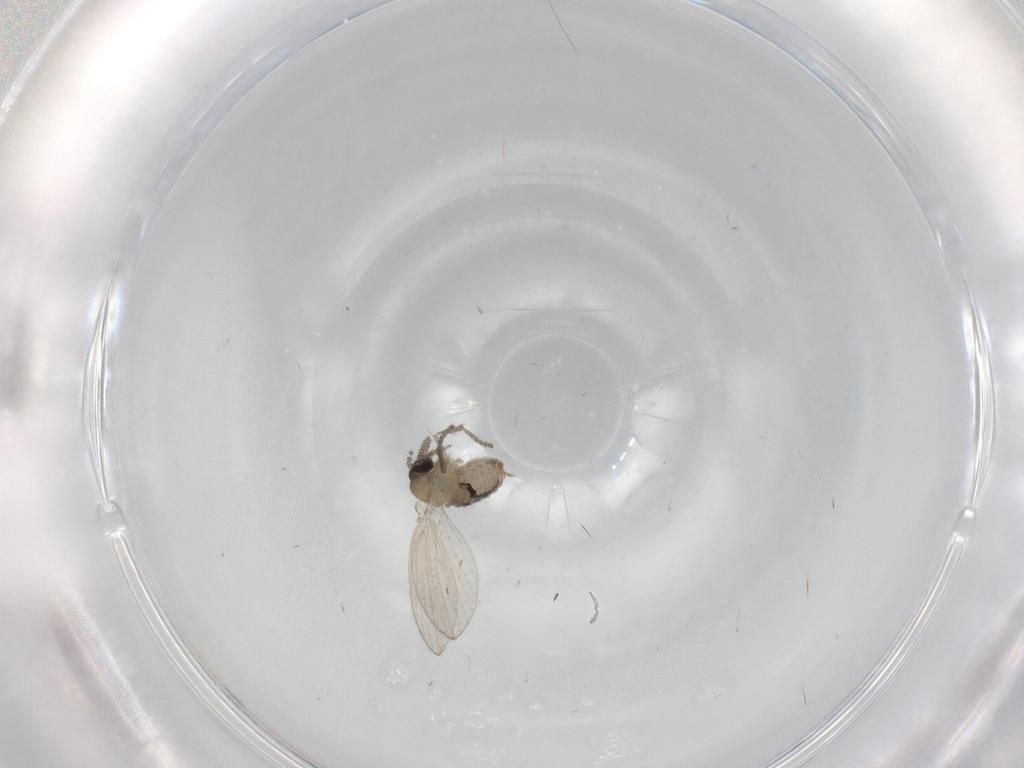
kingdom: Animalia
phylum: Arthropoda
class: Insecta
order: Diptera
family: Psychodidae
